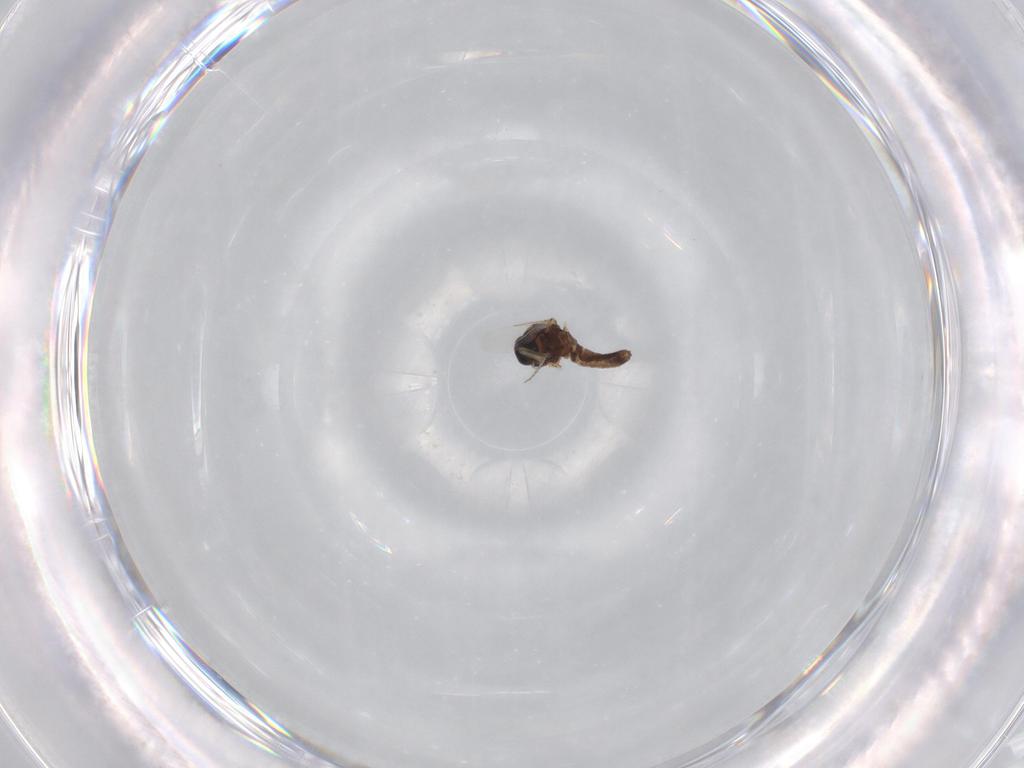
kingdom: Animalia
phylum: Arthropoda
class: Insecta
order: Diptera
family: Ceratopogonidae
